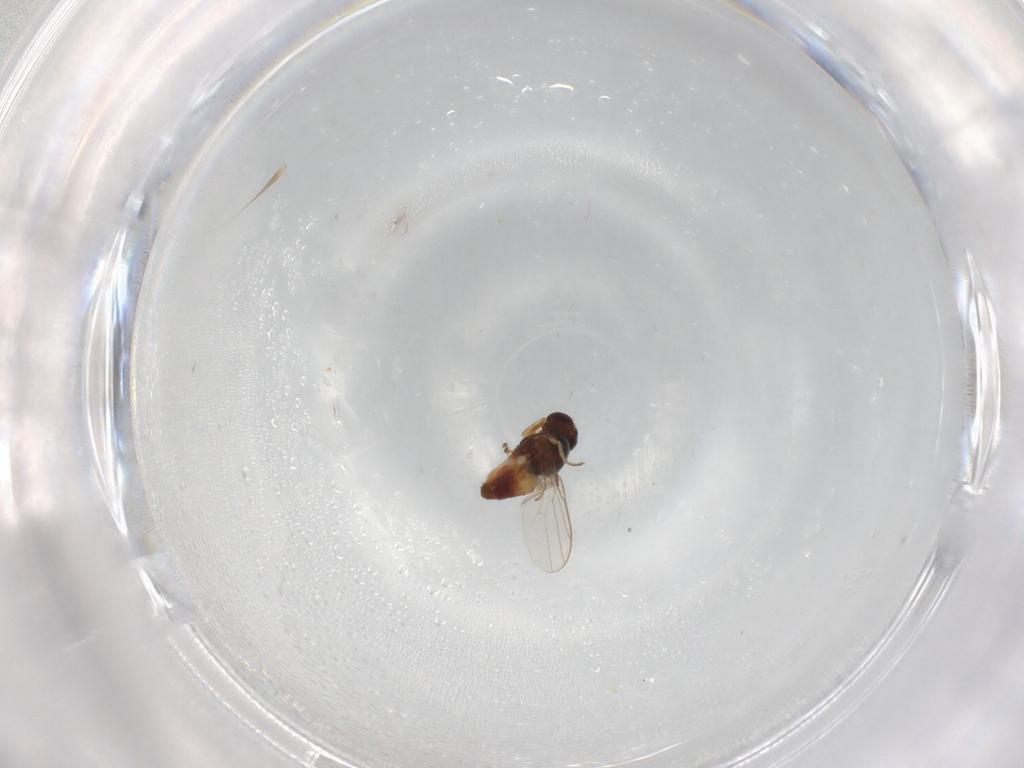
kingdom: Animalia
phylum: Arthropoda
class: Insecta
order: Diptera
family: Chloropidae
